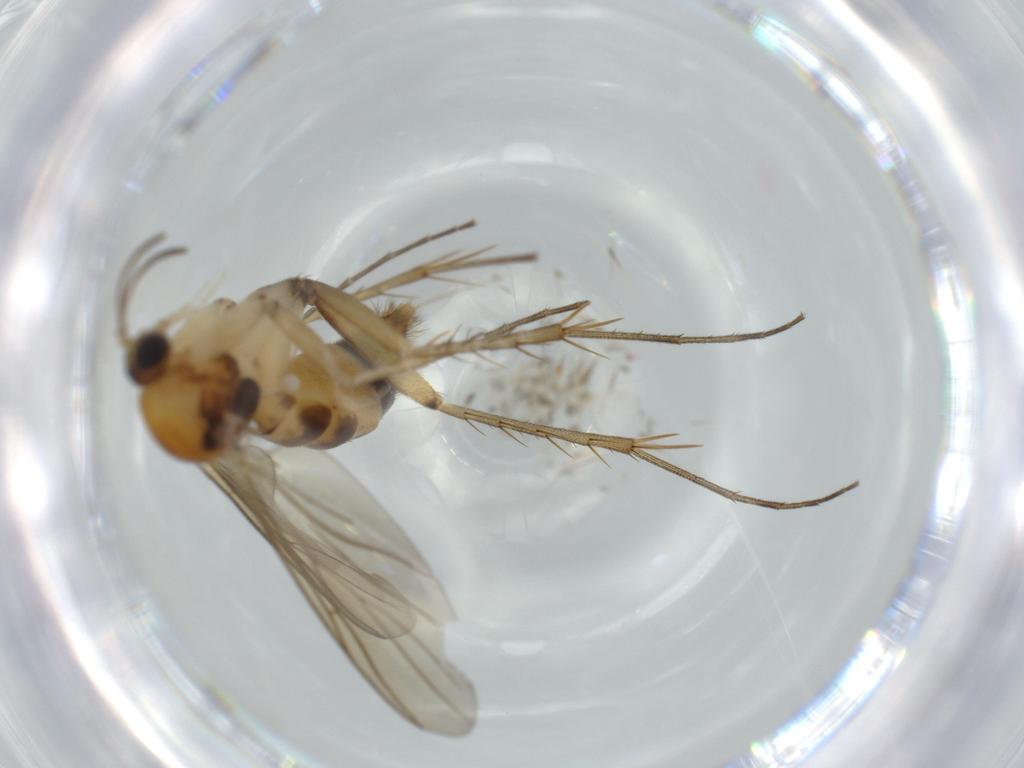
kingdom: Animalia
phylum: Arthropoda
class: Insecta
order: Diptera
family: Mycetophilidae
